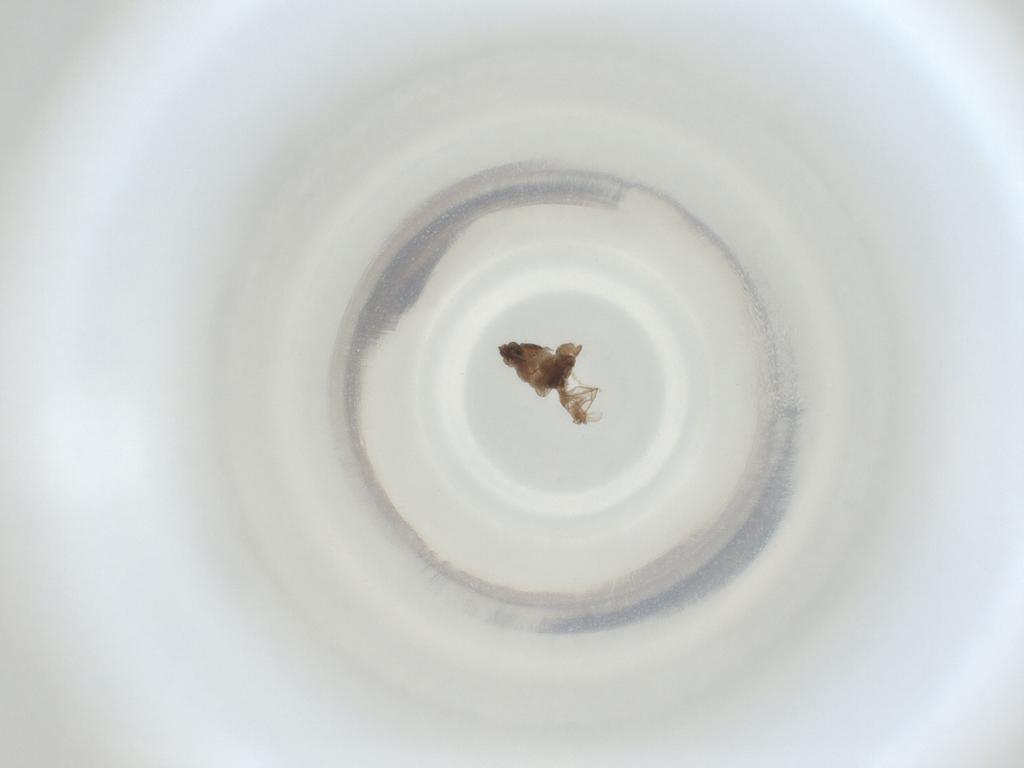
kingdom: Animalia
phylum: Arthropoda
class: Insecta
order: Diptera
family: Cecidomyiidae
